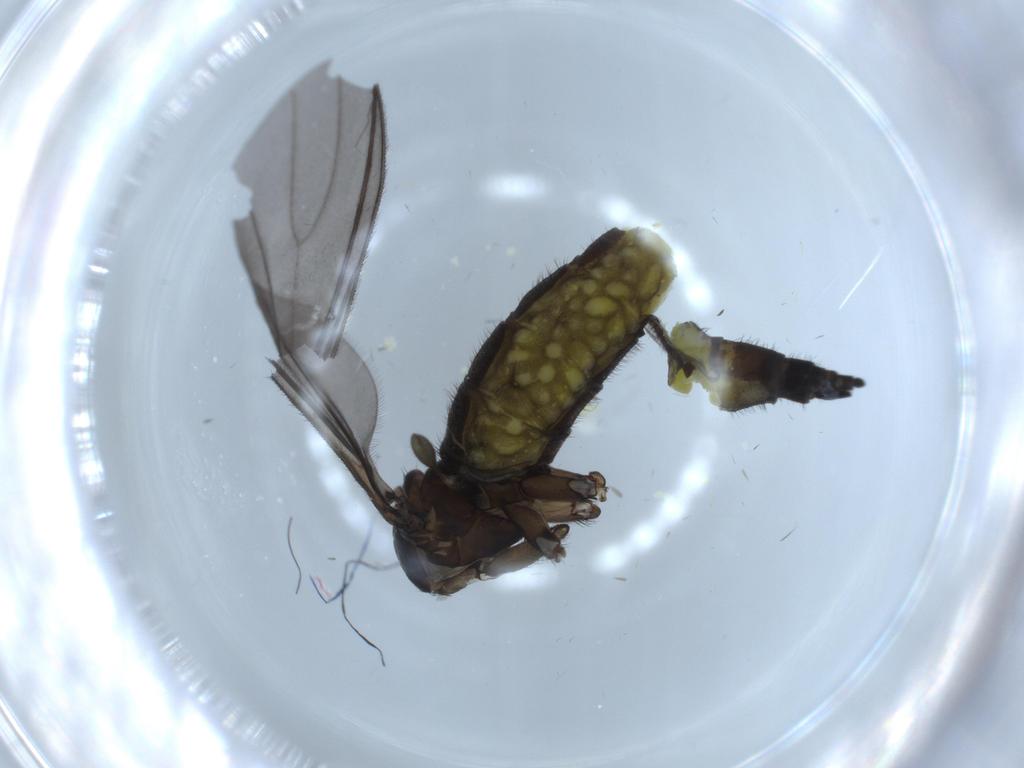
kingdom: Animalia
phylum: Arthropoda
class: Insecta
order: Diptera
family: Sciaridae
